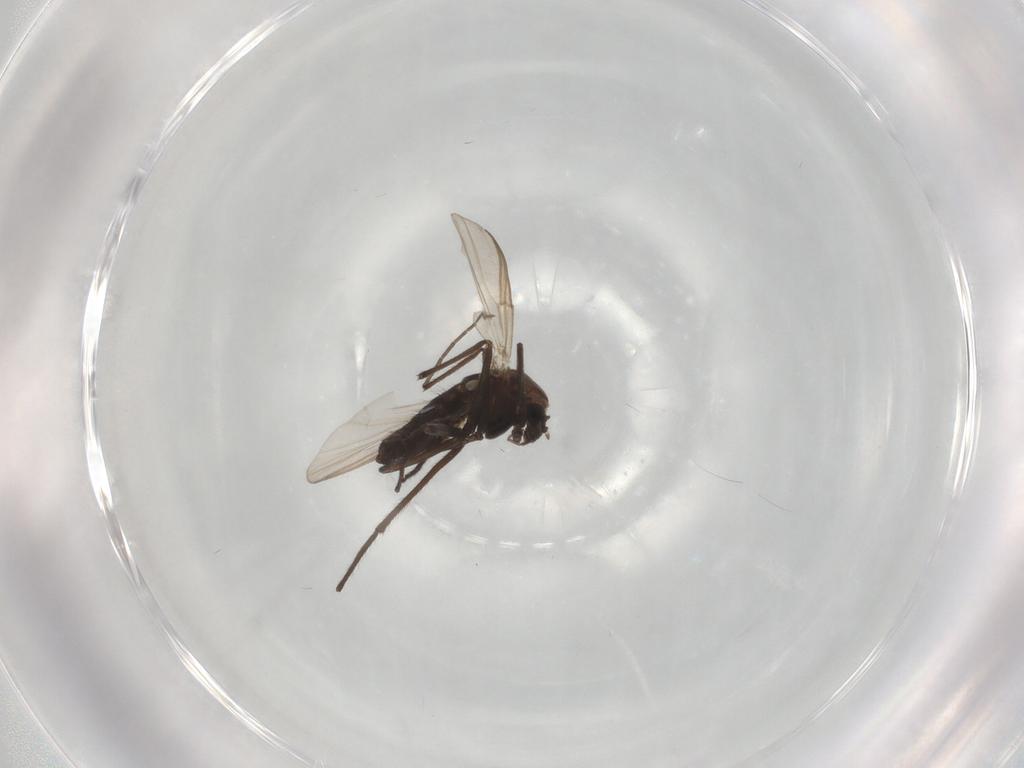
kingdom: Animalia
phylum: Arthropoda
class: Insecta
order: Diptera
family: Chironomidae
